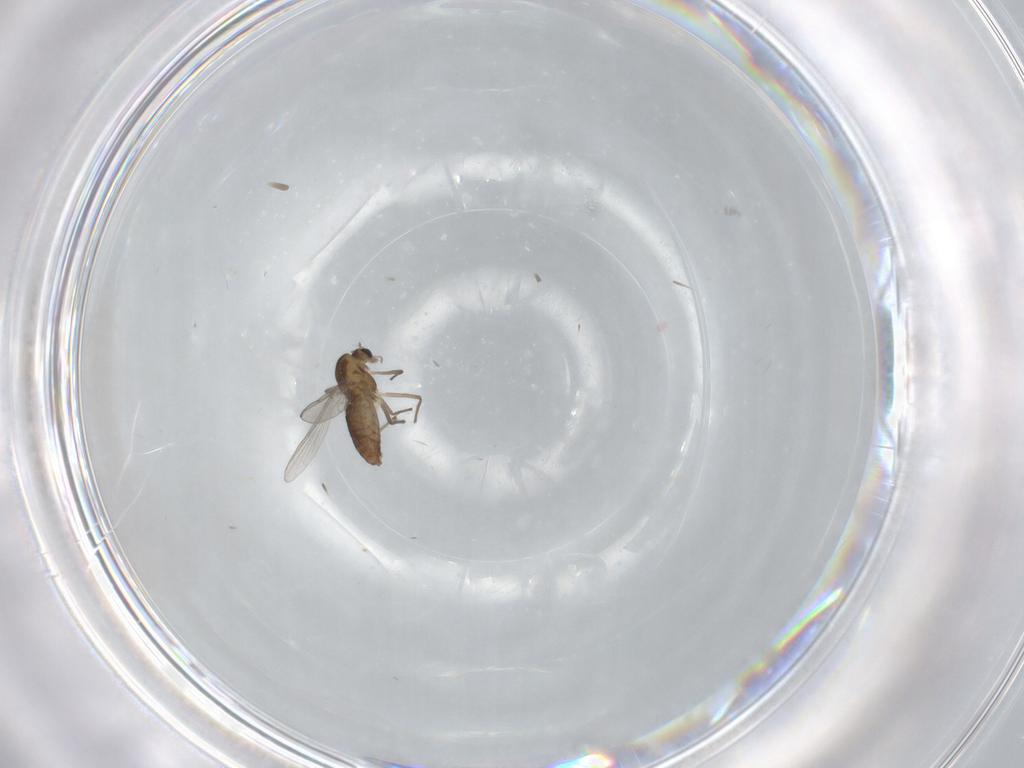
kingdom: Animalia
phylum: Arthropoda
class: Insecta
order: Diptera
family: Chironomidae
